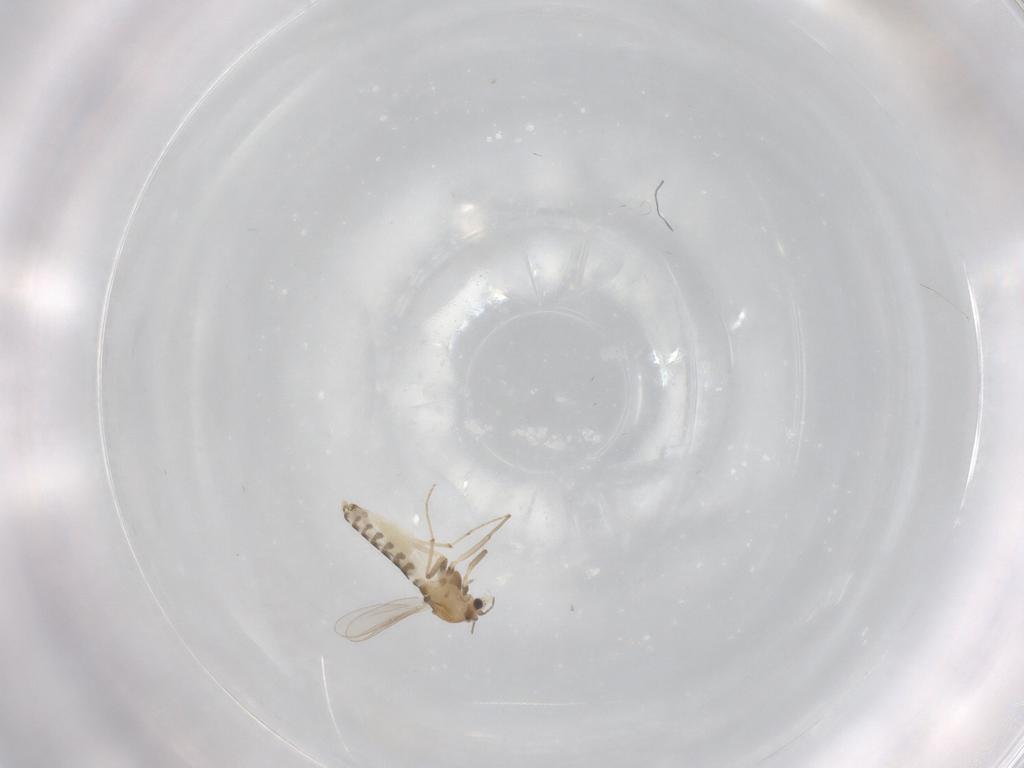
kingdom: Animalia
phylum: Arthropoda
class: Insecta
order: Diptera
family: Chironomidae
